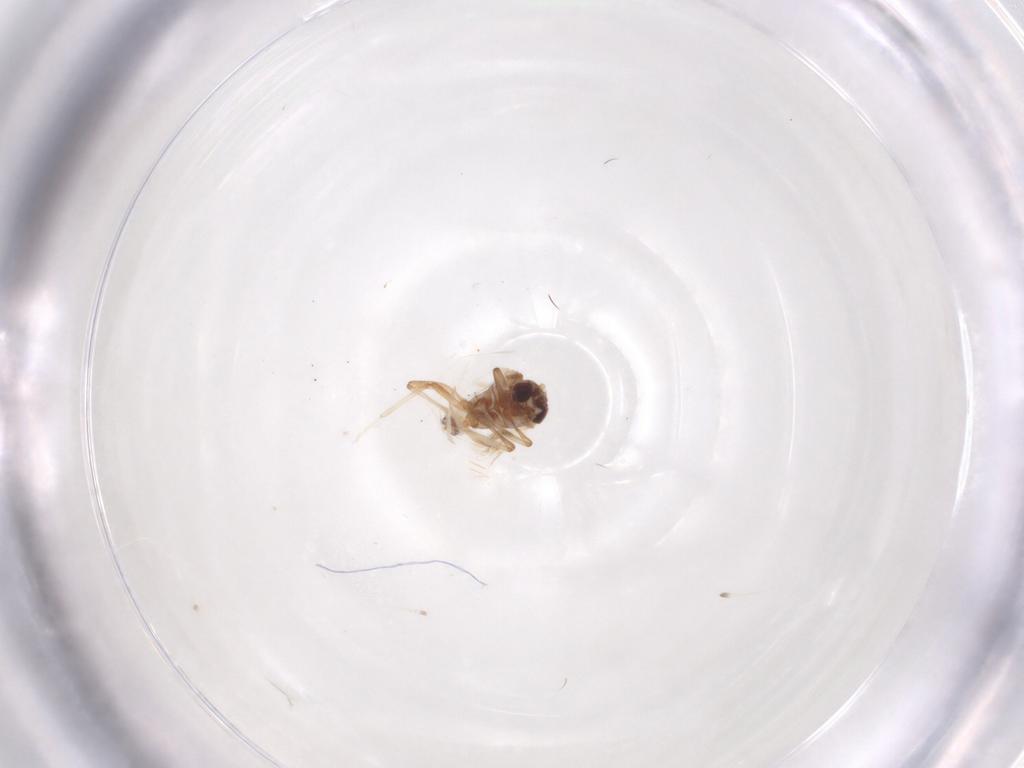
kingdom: Animalia
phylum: Arthropoda
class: Insecta
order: Neuroptera
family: Coniopterygidae
